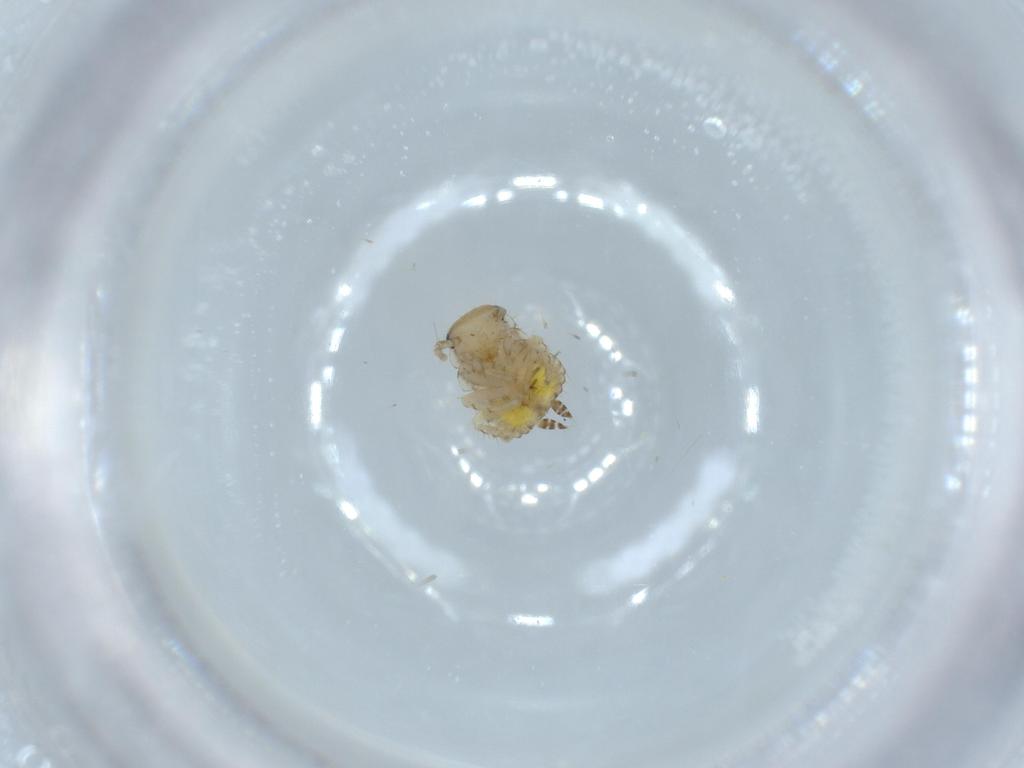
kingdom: Animalia
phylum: Arthropoda
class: Insecta
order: Blattodea
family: Ectobiidae
